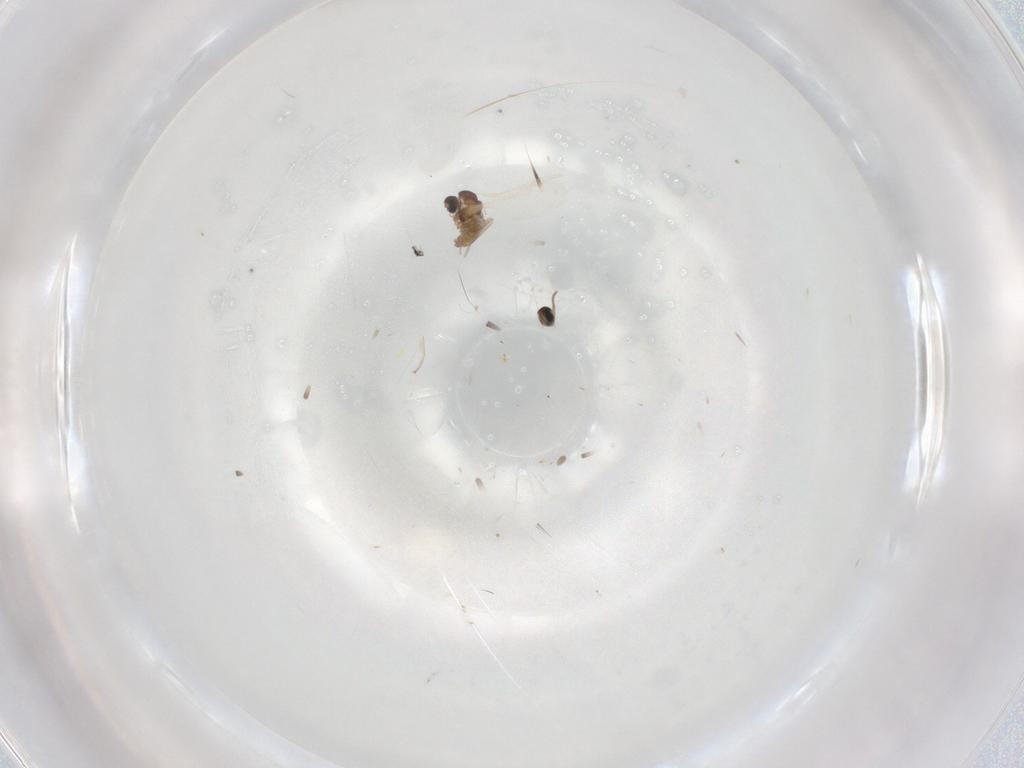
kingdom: Animalia
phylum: Arthropoda
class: Insecta
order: Diptera
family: Cecidomyiidae
